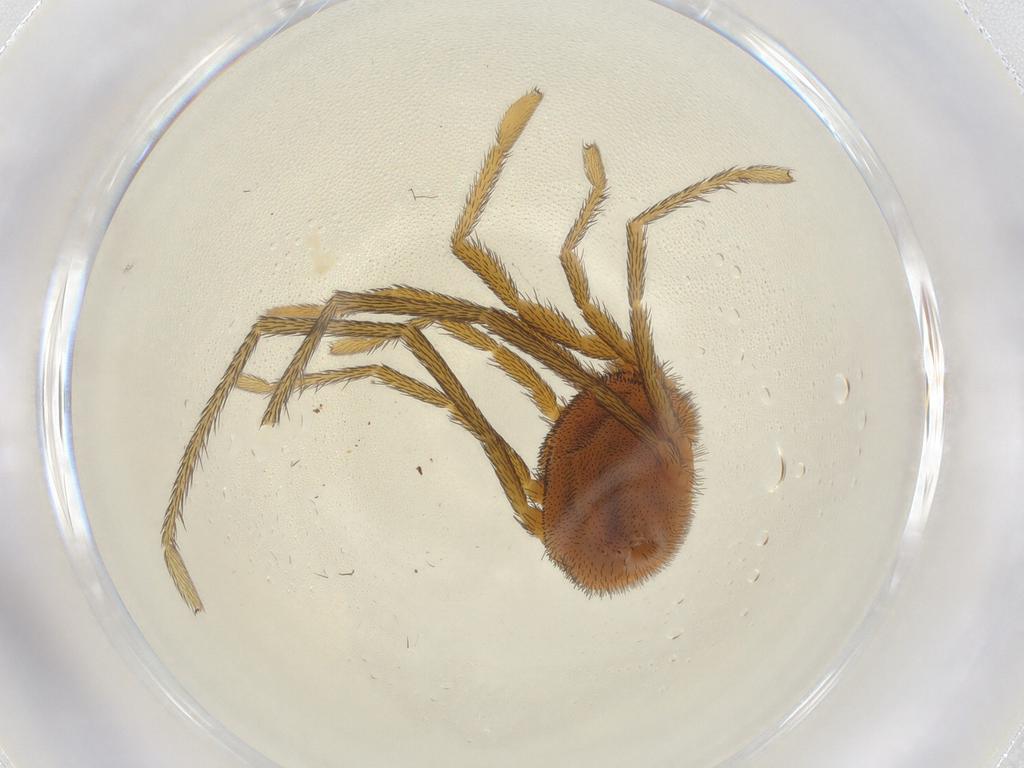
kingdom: Animalia
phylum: Arthropoda
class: Arachnida
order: Trombidiformes
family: Erythraeidae
